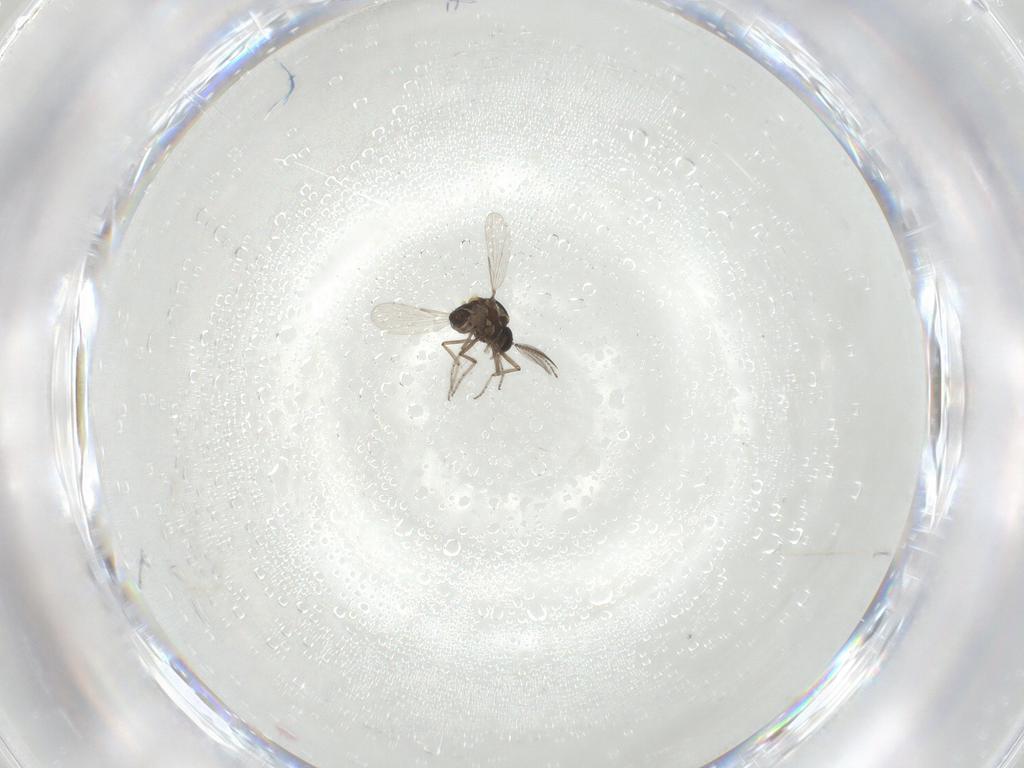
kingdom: Animalia
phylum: Arthropoda
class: Insecta
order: Diptera
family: Ceratopogonidae
